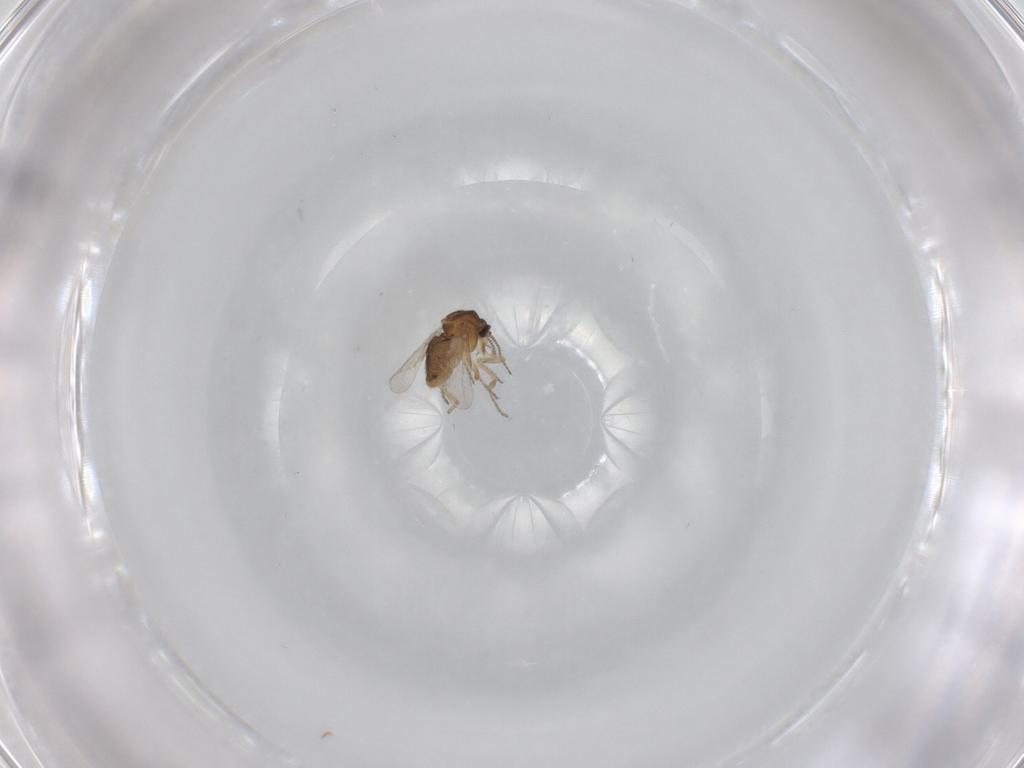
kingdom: Animalia
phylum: Arthropoda
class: Insecta
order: Diptera
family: Ceratopogonidae
